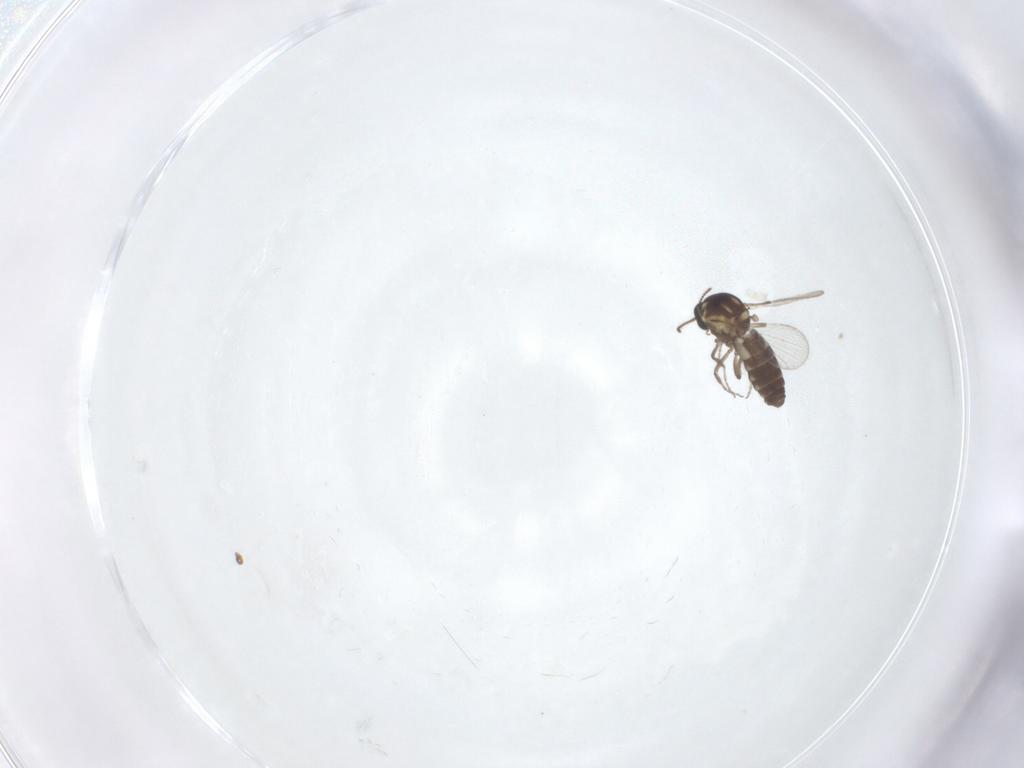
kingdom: Animalia
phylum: Arthropoda
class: Insecta
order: Diptera
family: Ceratopogonidae
